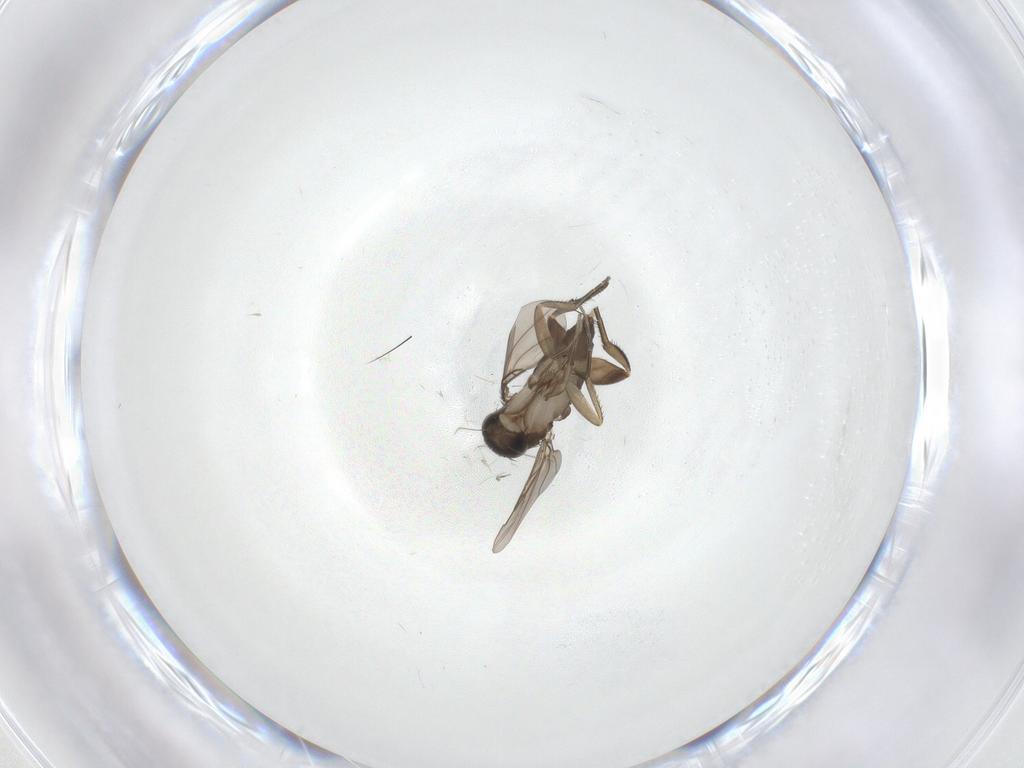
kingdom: Animalia
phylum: Arthropoda
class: Insecta
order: Diptera
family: Phoridae
